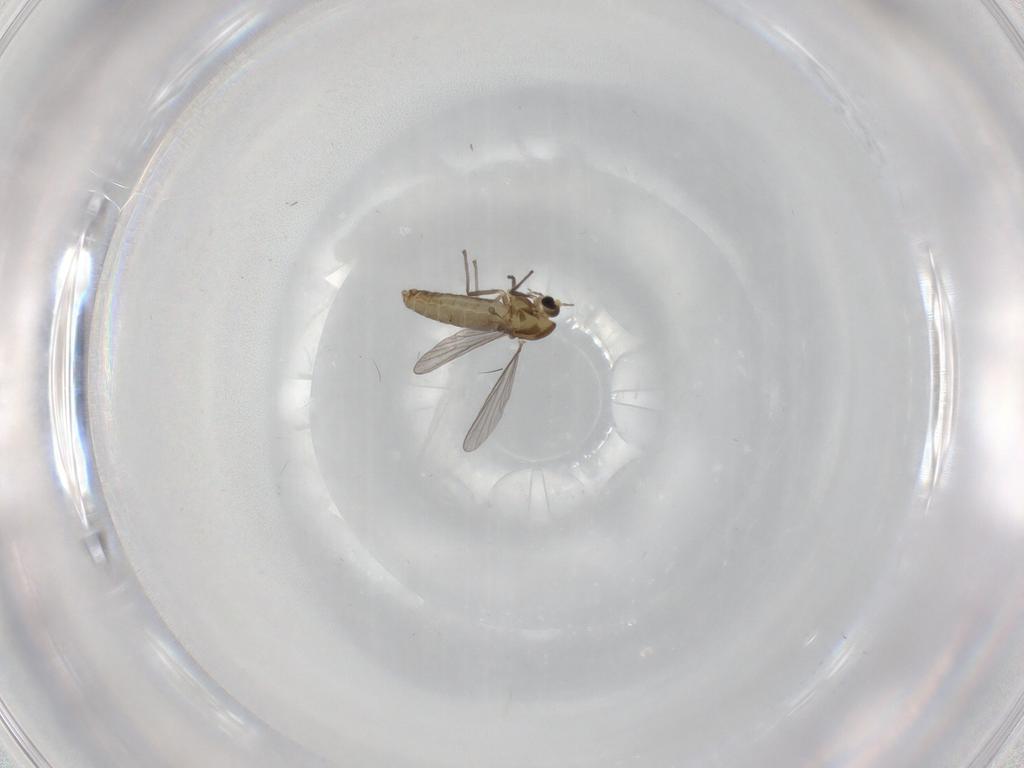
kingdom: Animalia
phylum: Arthropoda
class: Insecta
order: Diptera
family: Sciaridae
